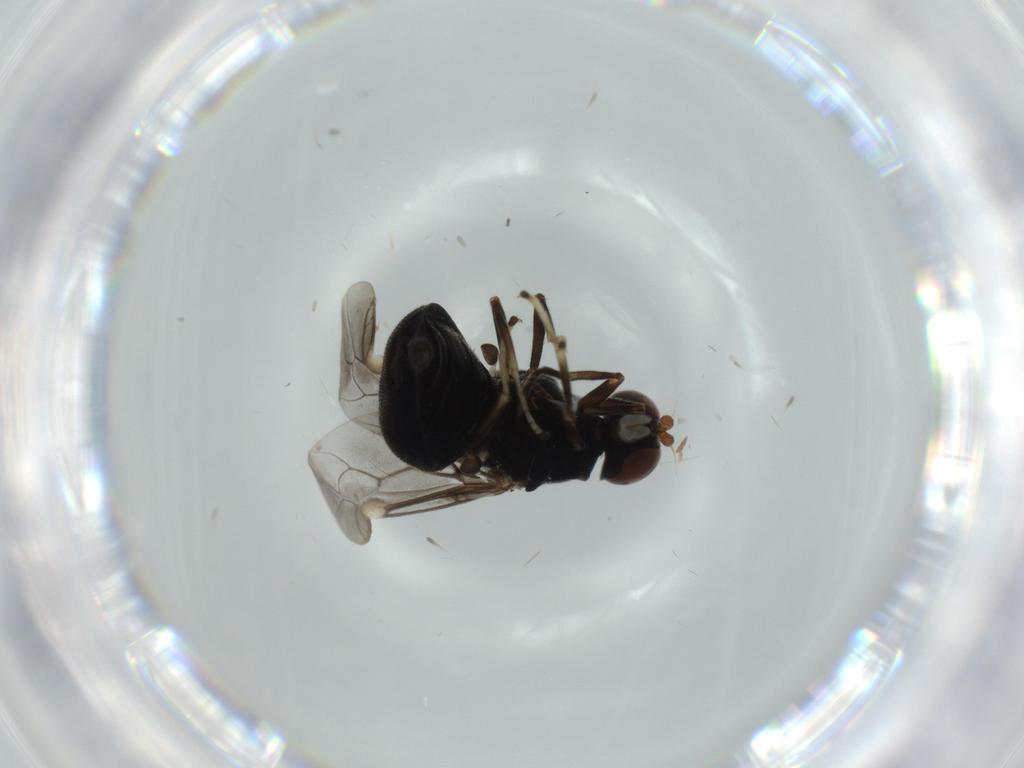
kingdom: Animalia
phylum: Arthropoda
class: Insecta
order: Diptera
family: Stratiomyidae
